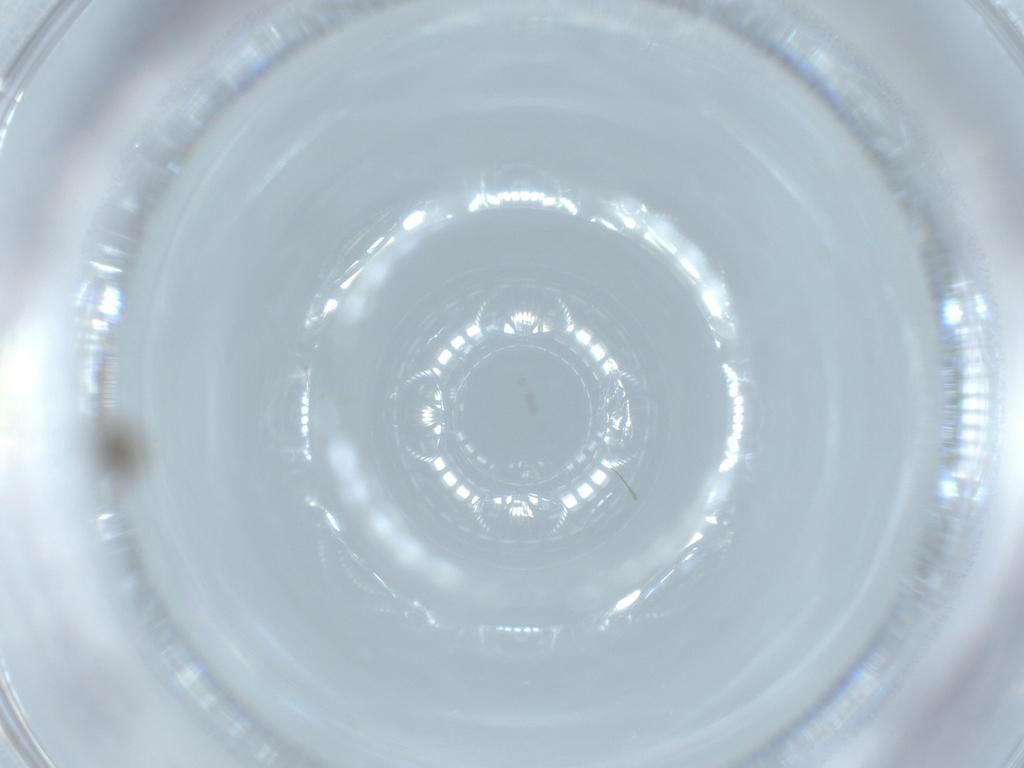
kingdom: Animalia
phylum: Arthropoda
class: Insecta
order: Diptera
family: Cecidomyiidae
